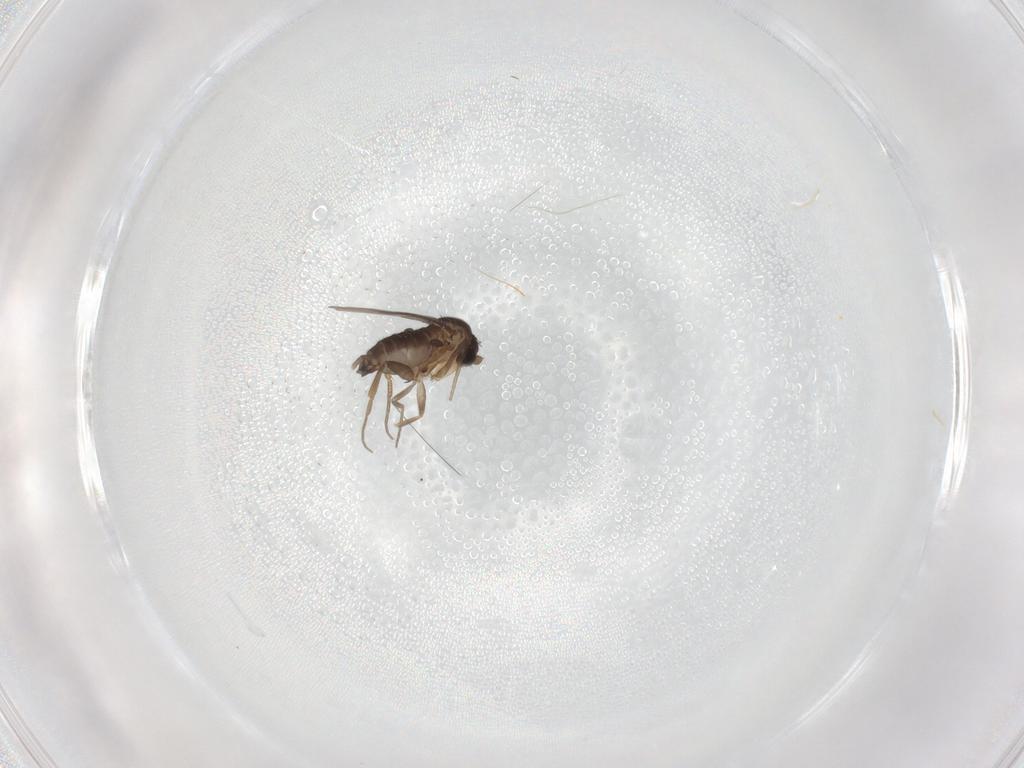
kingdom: Animalia
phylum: Arthropoda
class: Insecta
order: Diptera
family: Phoridae
